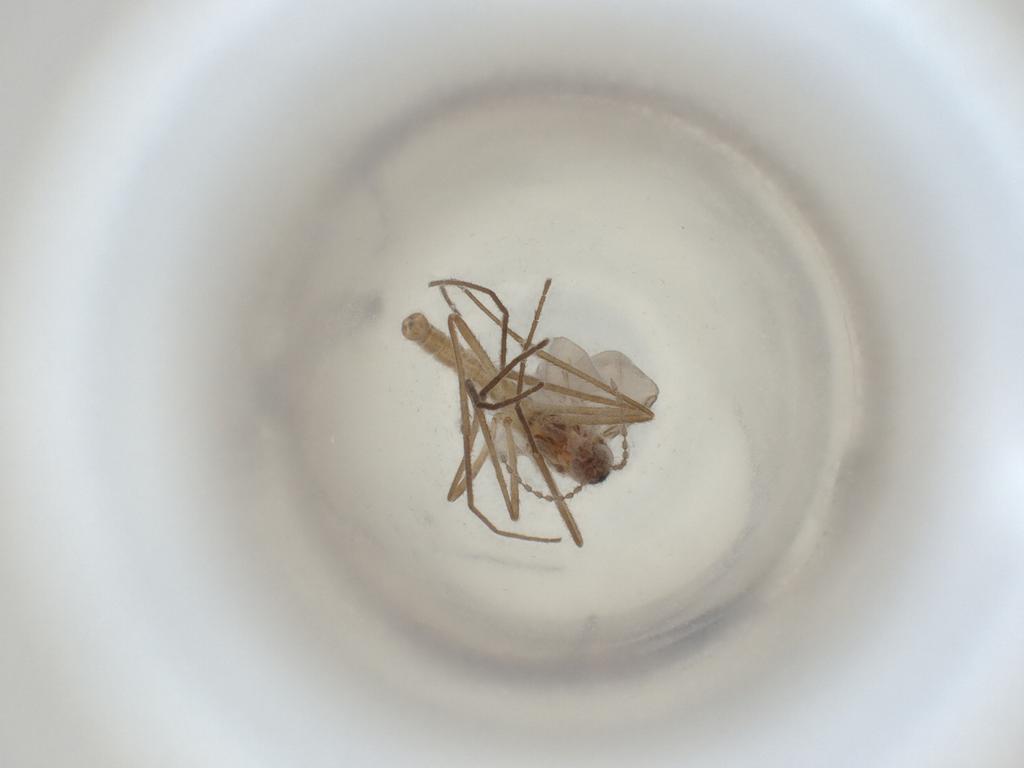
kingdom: Animalia
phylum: Arthropoda
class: Insecta
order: Diptera
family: Cecidomyiidae
